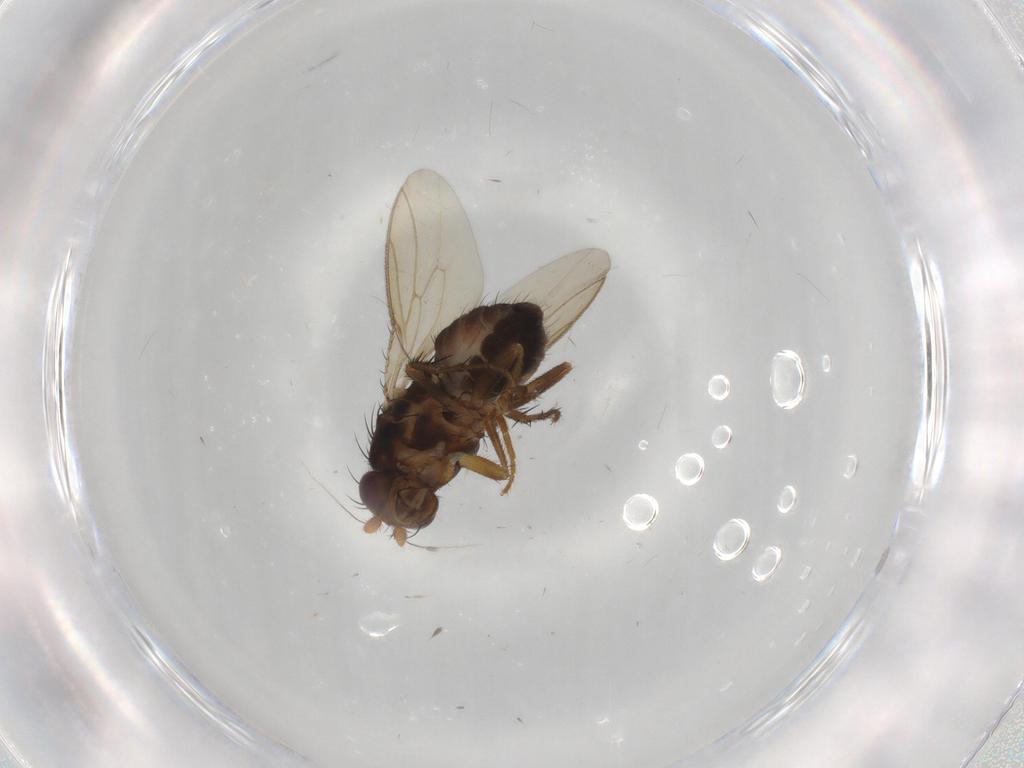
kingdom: Animalia
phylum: Arthropoda
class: Insecta
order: Diptera
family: Sphaeroceridae
